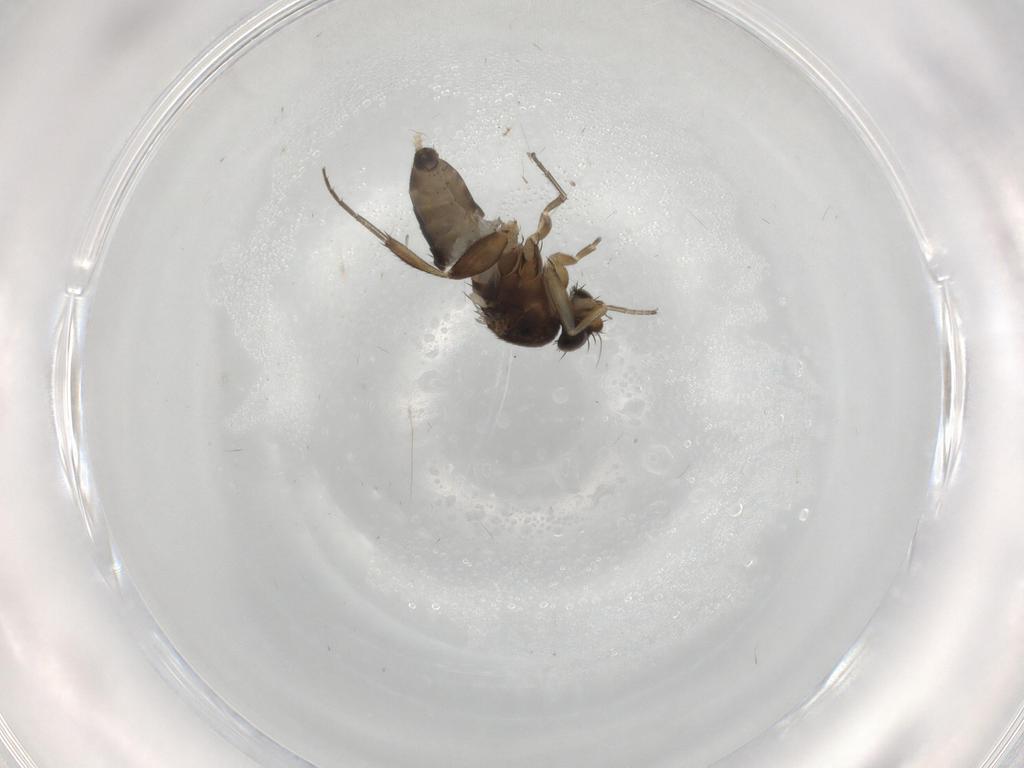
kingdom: Animalia
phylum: Arthropoda
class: Insecta
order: Diptera
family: Phoridae
